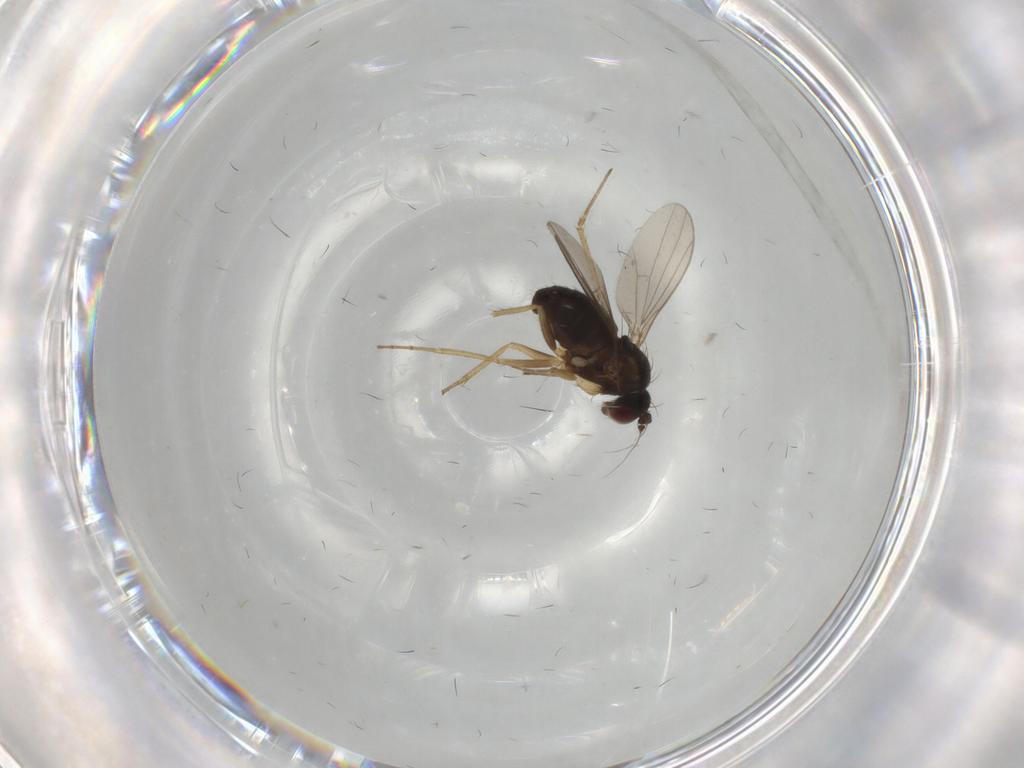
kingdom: Animalia
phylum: Arthropoda
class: Insecta
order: Diptera
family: Dolichopodidae
